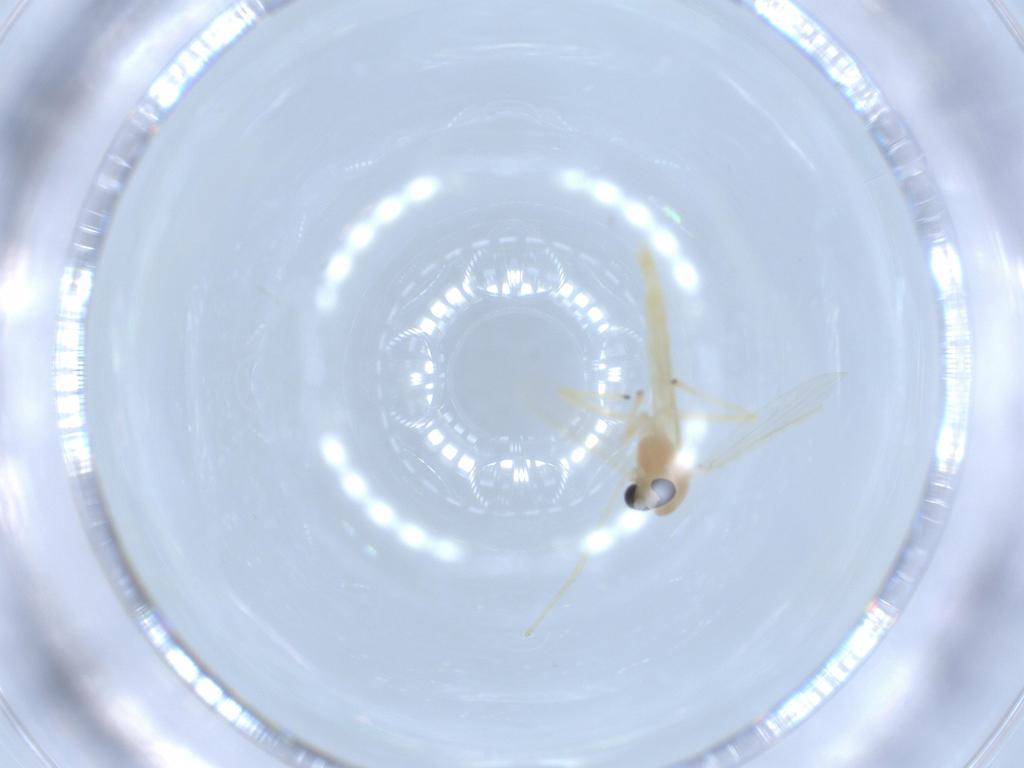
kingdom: Animalia
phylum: Arthropoda
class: Insecta
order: Diptera
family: Chironomidae
